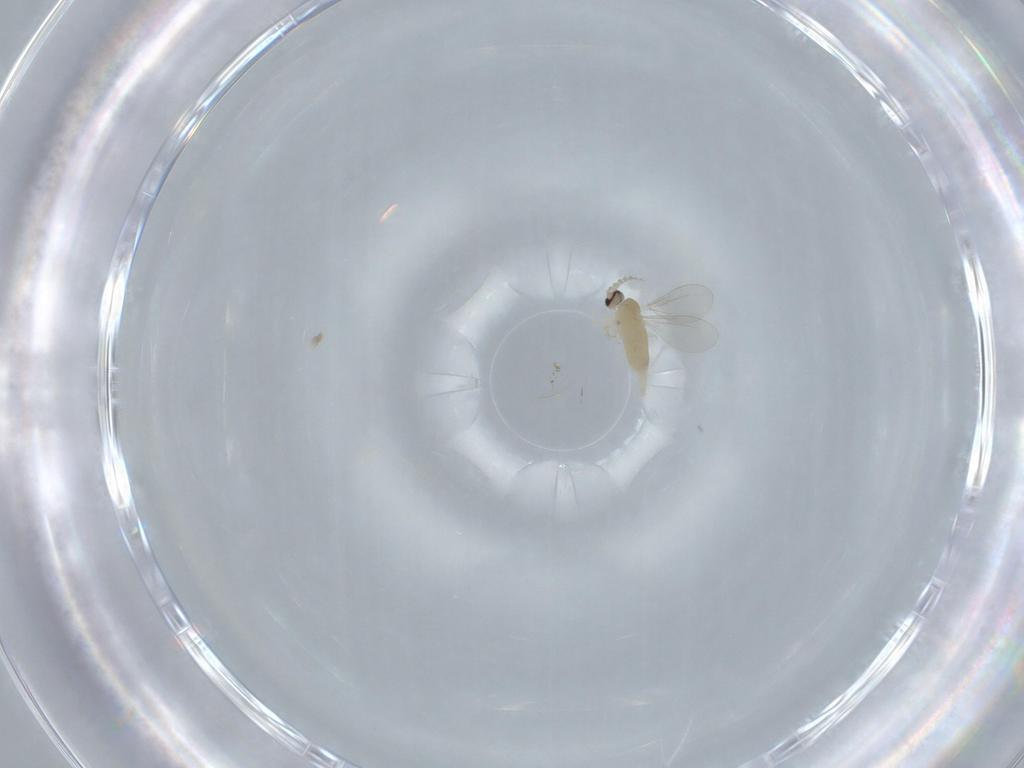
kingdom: Animalia
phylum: Arthropoda
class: Insecta
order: Diptera
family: Cecidomyiidae
